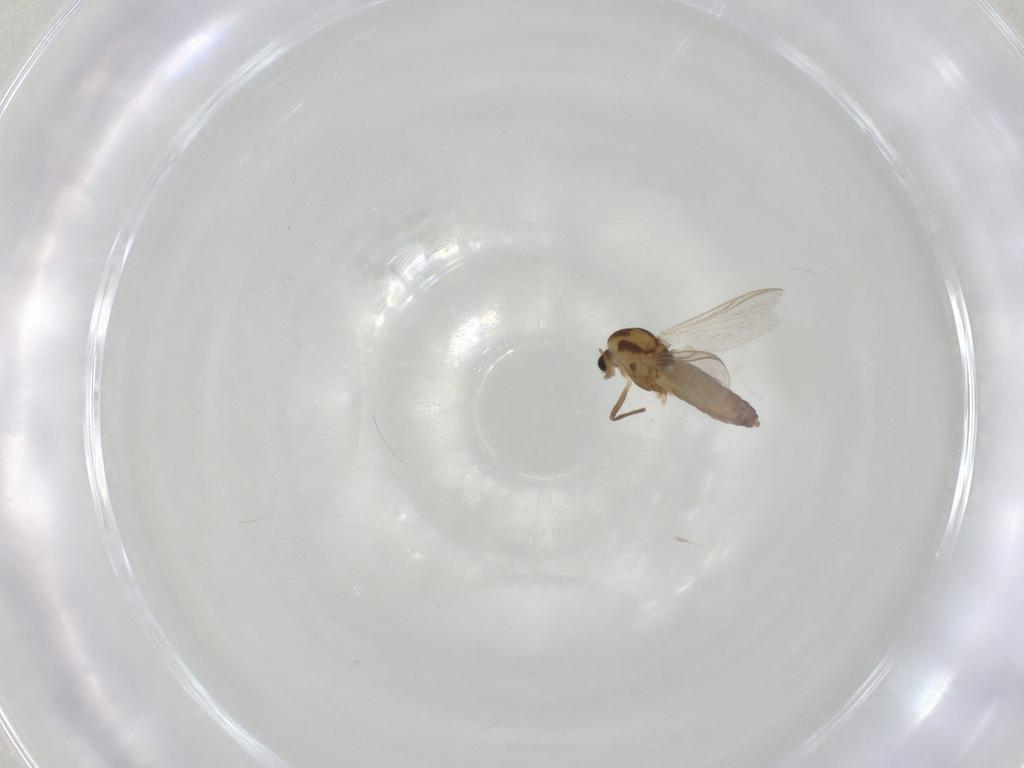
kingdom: Animalia
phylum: Arthropoda
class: Insecta
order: Diptera
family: Chironomidae
